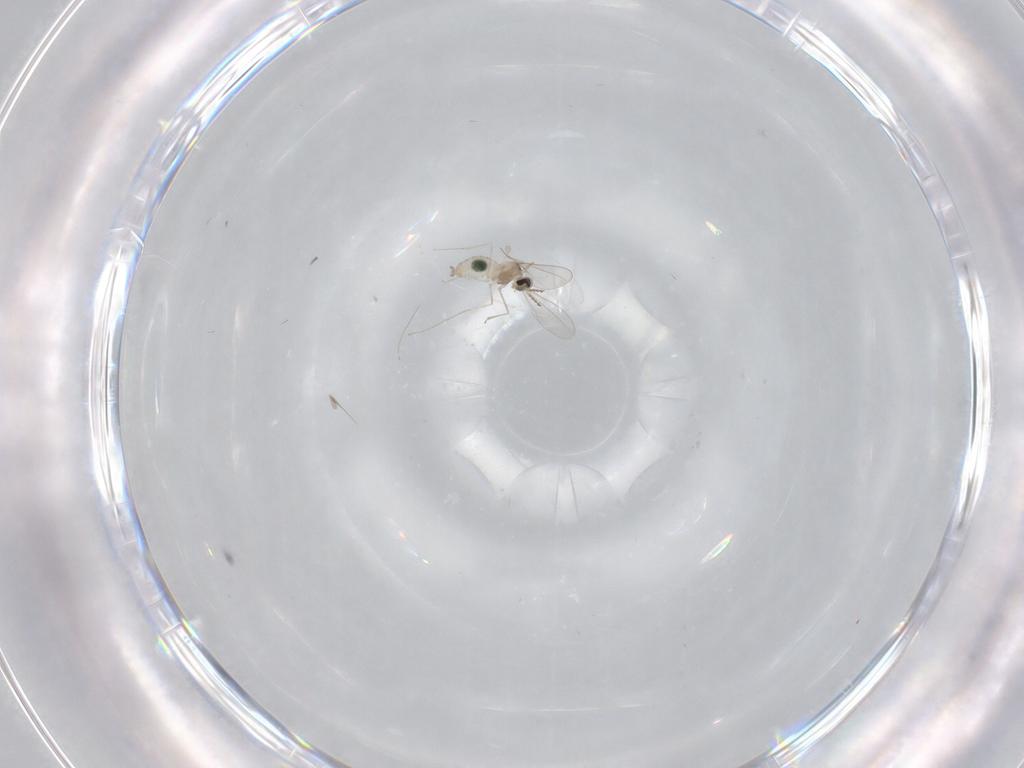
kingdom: Animalia
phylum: Arthropoda
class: Insecta
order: Diptera
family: Cecidomyiidae
